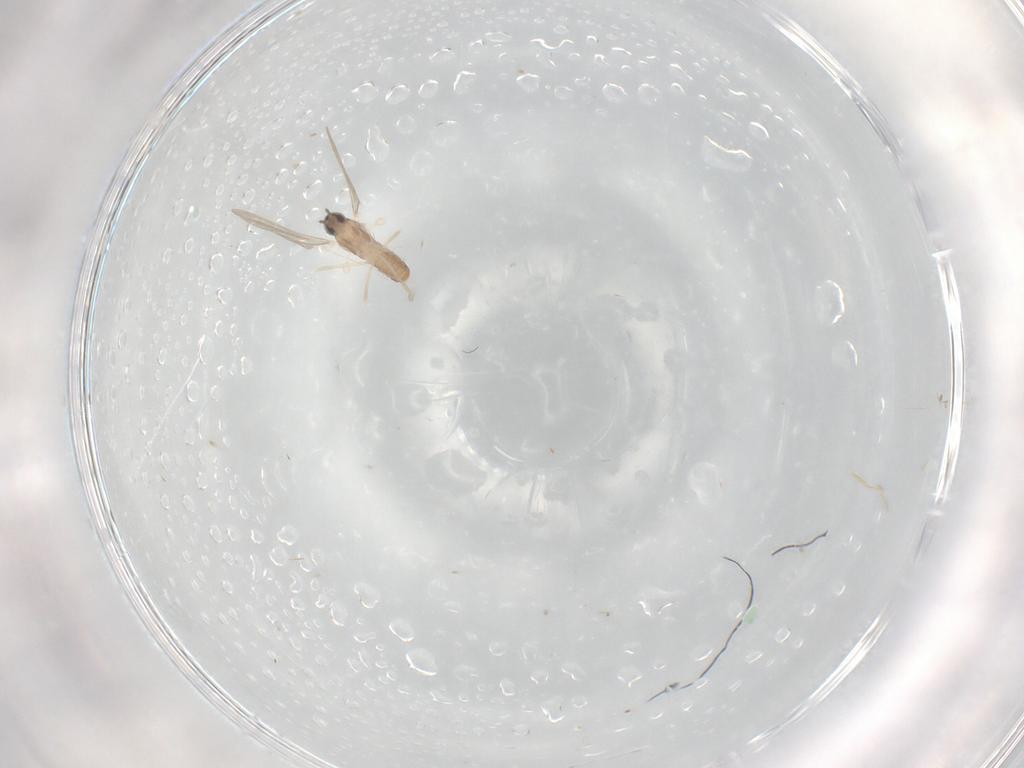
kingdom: Animalia
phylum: Arthropoda
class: Insecta
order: Diptera
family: Cecidomyiidae
